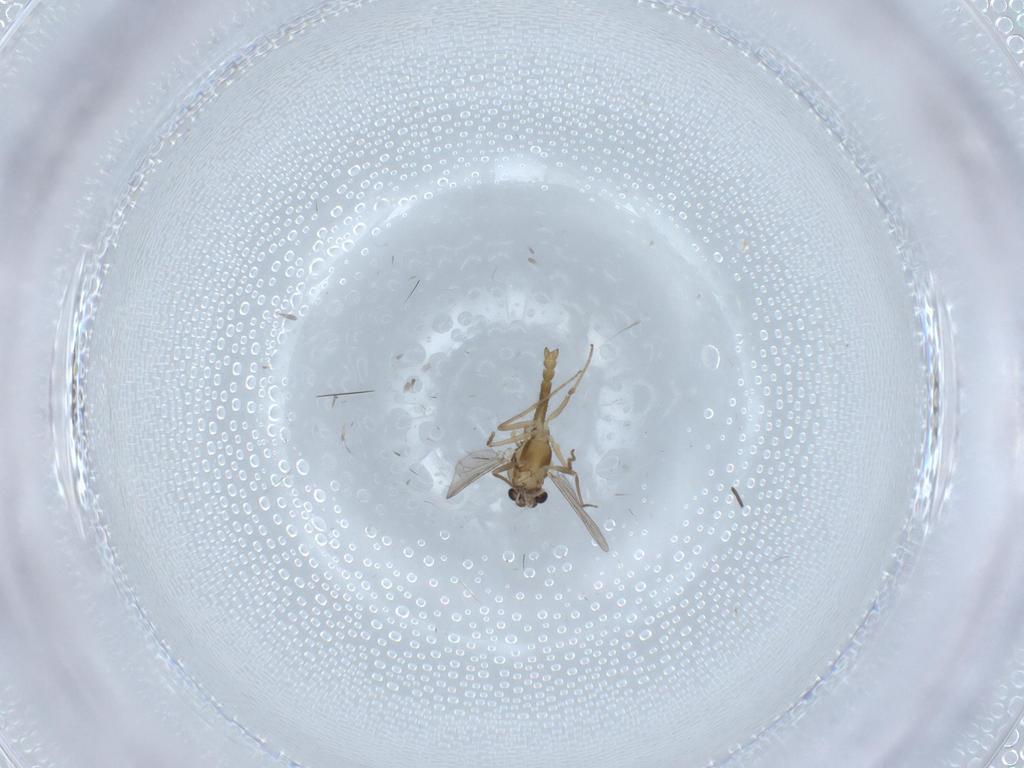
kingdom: Animalia
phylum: Arthropoda
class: Insecta
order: Diptera
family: Chironomidae
